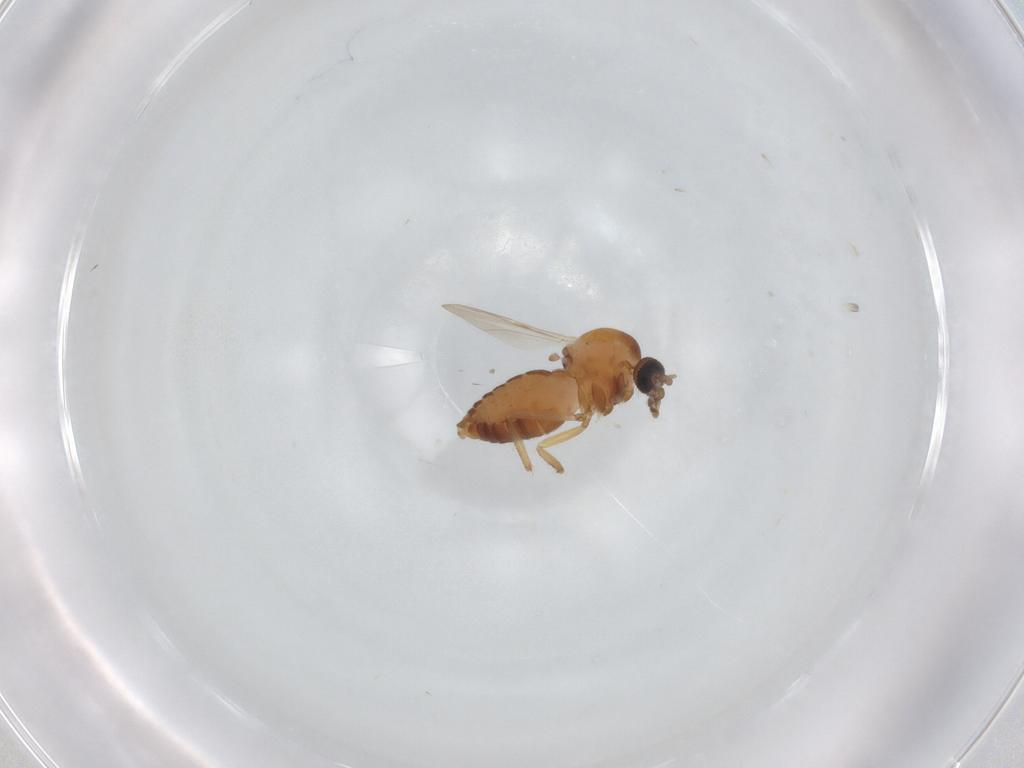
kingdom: Animalia
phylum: Arthropoda
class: Insecta
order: Diptera
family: Ceratopogonidae
